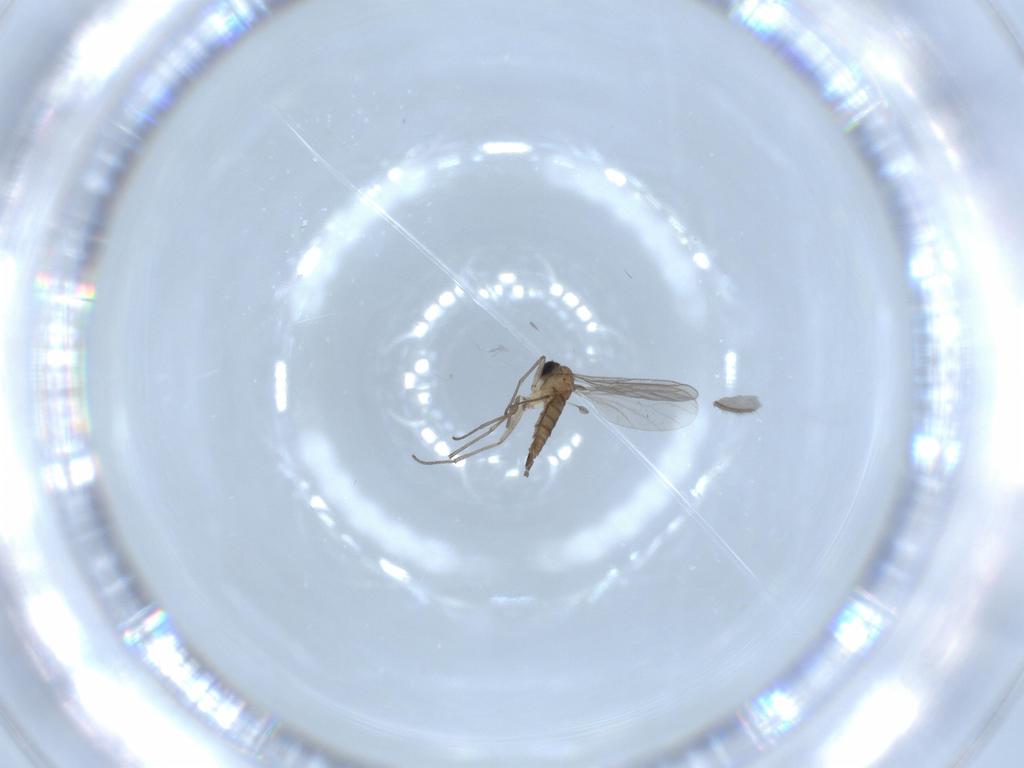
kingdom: Animalia
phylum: Arthropoda
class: Insecta
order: Diptera
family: Sciaridae
